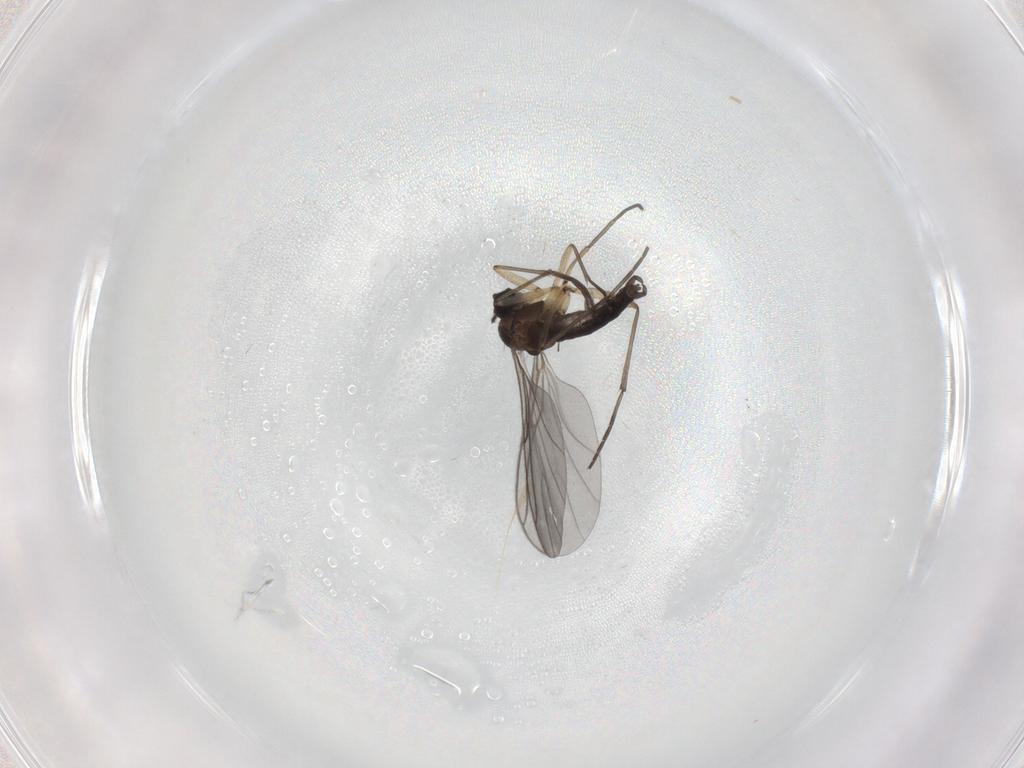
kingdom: Animalia
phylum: Arthropoda
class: Insecta
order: Diptera
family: Sciaridae
